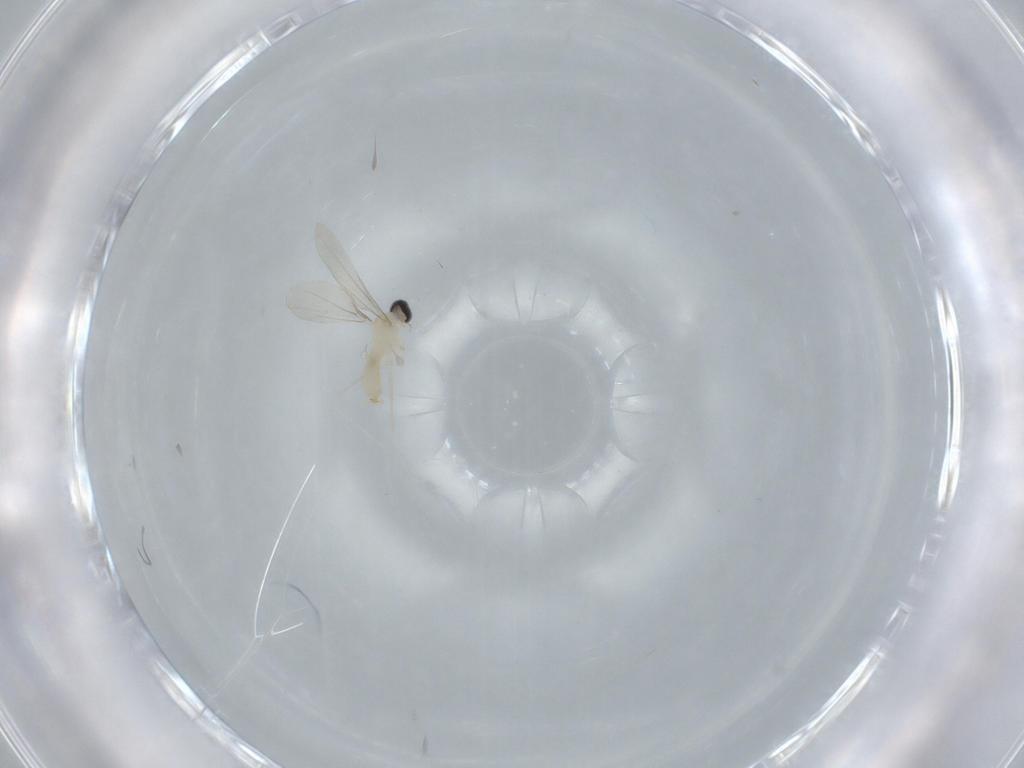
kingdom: Animalia
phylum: Arthropoda
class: Insecta
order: Diptera
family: Cecidomyiidae
